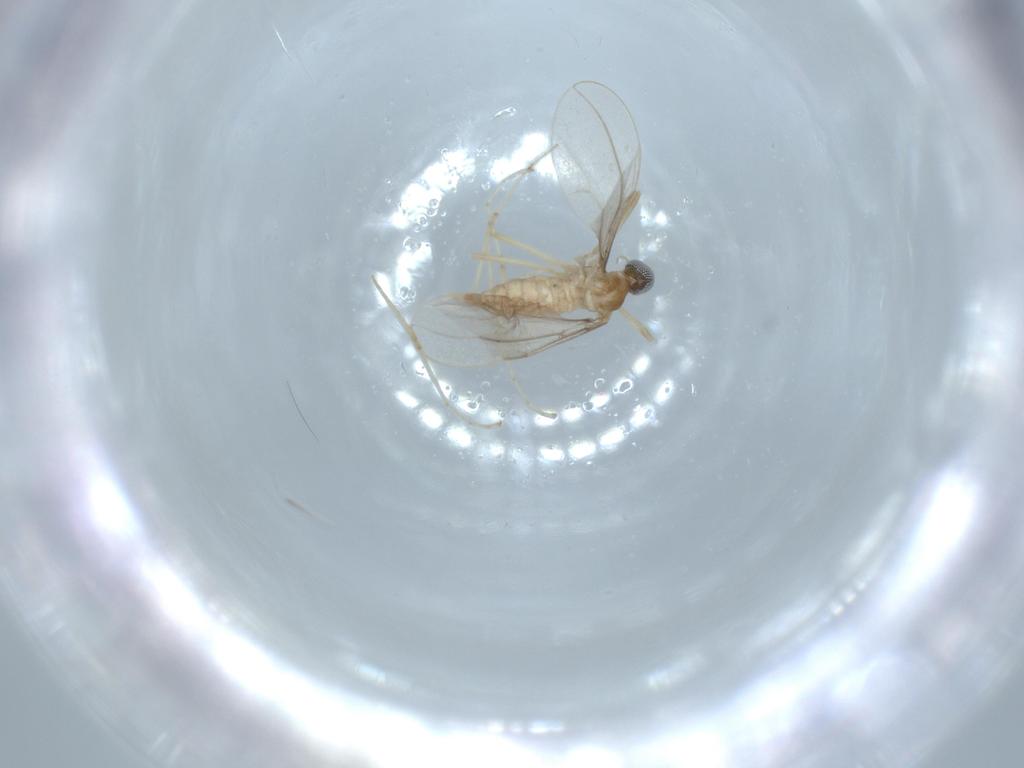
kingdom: Animalia
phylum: Arthropoda
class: Insecta
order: Diptera
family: Cecidomyiidae
